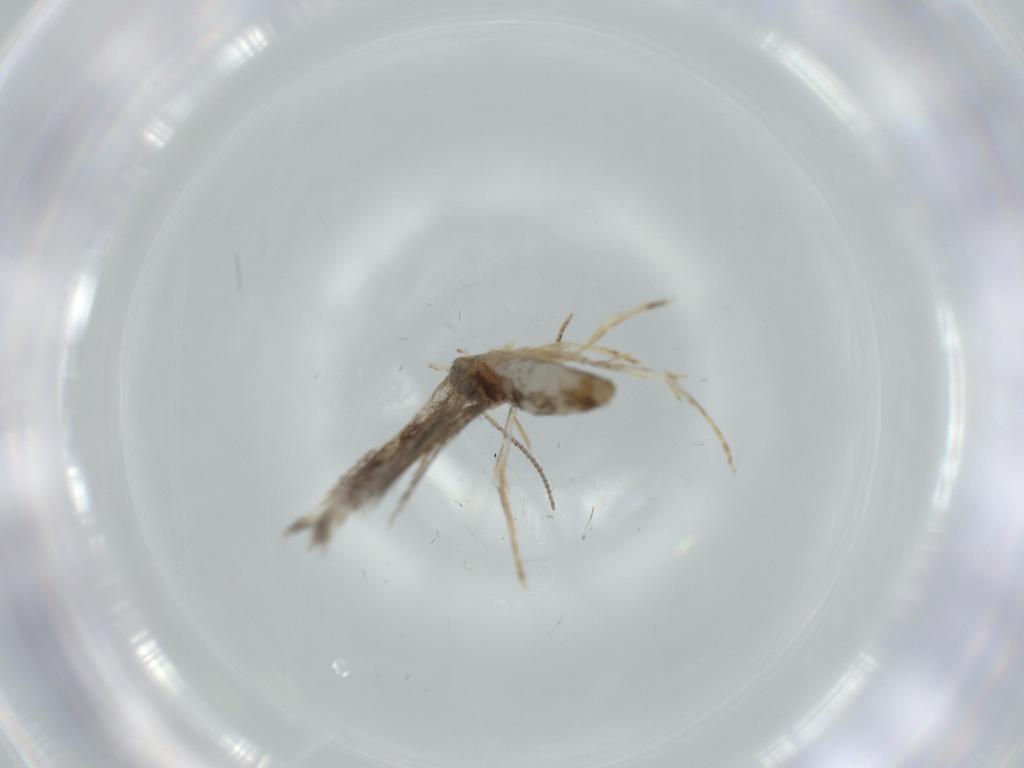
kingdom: Animalia
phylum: Arthropoda
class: Insecta
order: Lepidoptera
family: Tineidae
